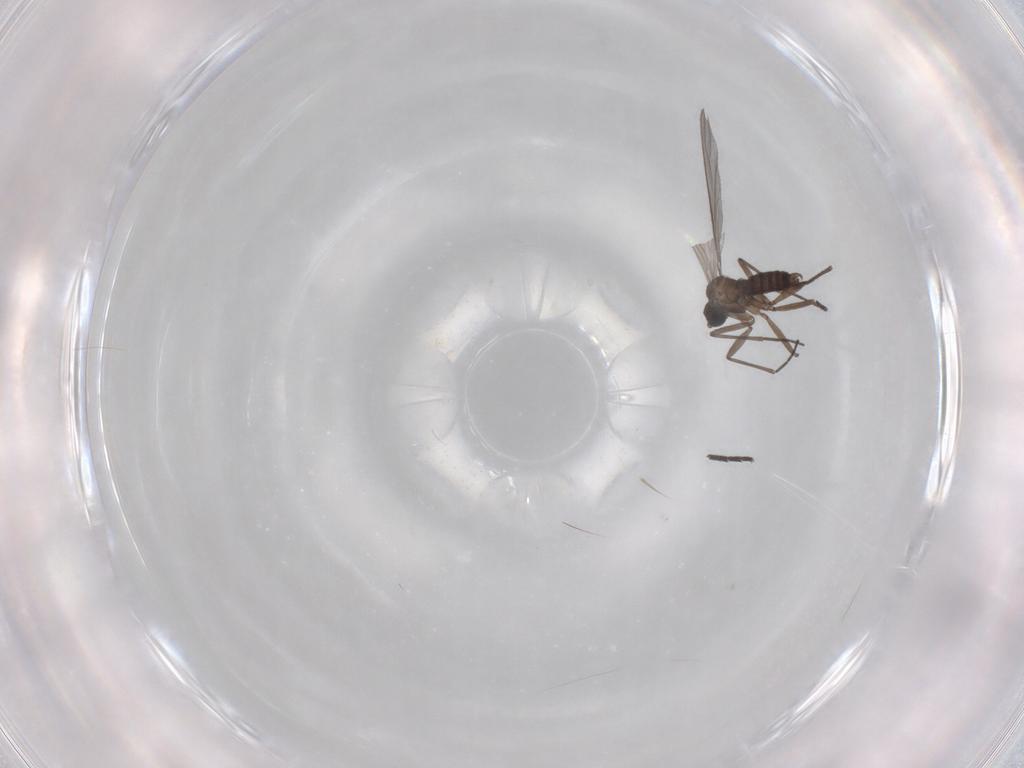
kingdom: Animalia
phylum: Arthropoda
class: Insecta
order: Diptera
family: Sciaridae
